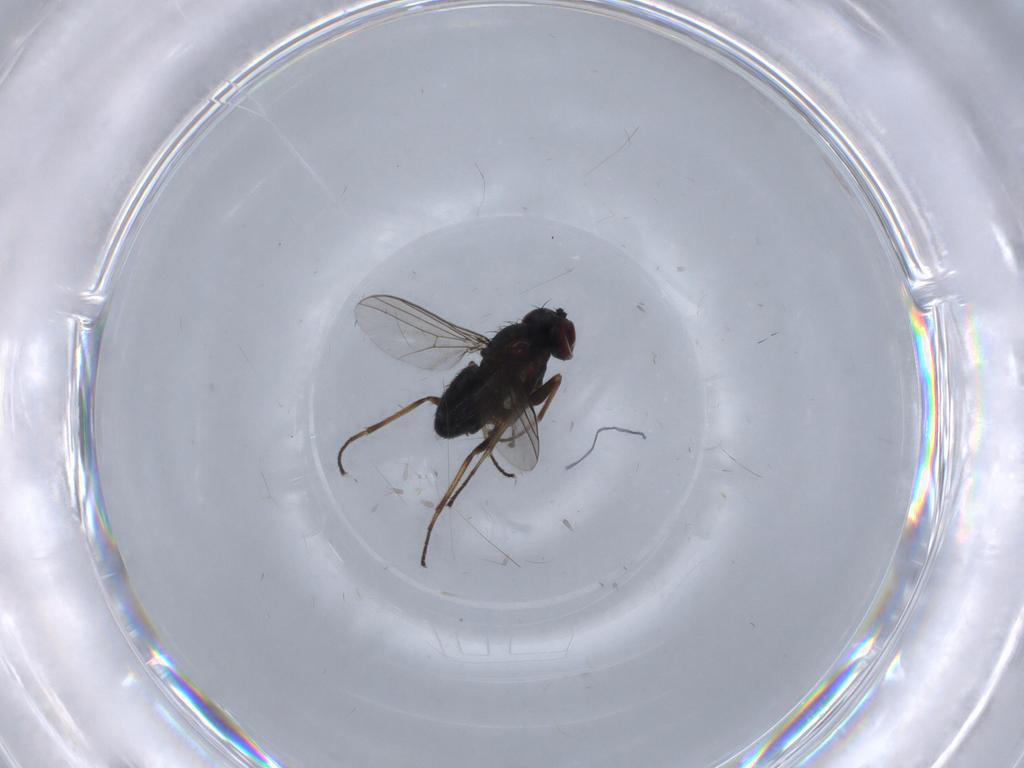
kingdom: Animalia
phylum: Arthropoda
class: Insecta
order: Diptera
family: Dolichopodidae
